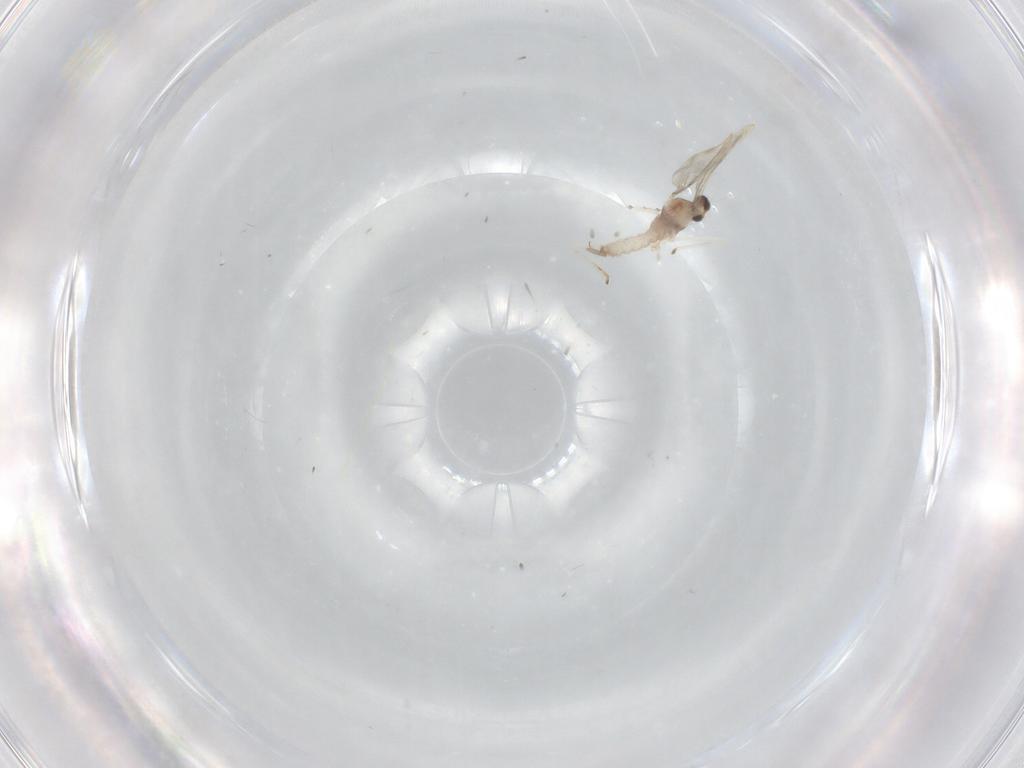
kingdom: Animalia
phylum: Arthropoda
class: Insecta
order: Diptera
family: Cecidomyiidae
